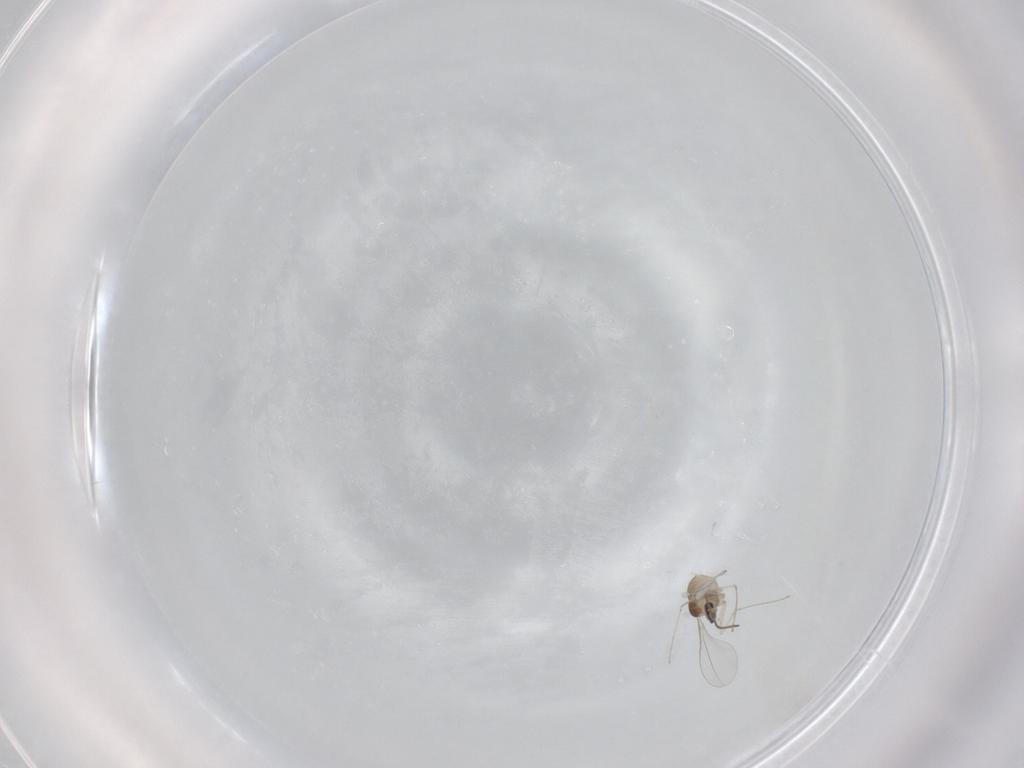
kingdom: Animalia
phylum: Arthropoda
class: Insecta
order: Diptera
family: Cecidomyiidae
